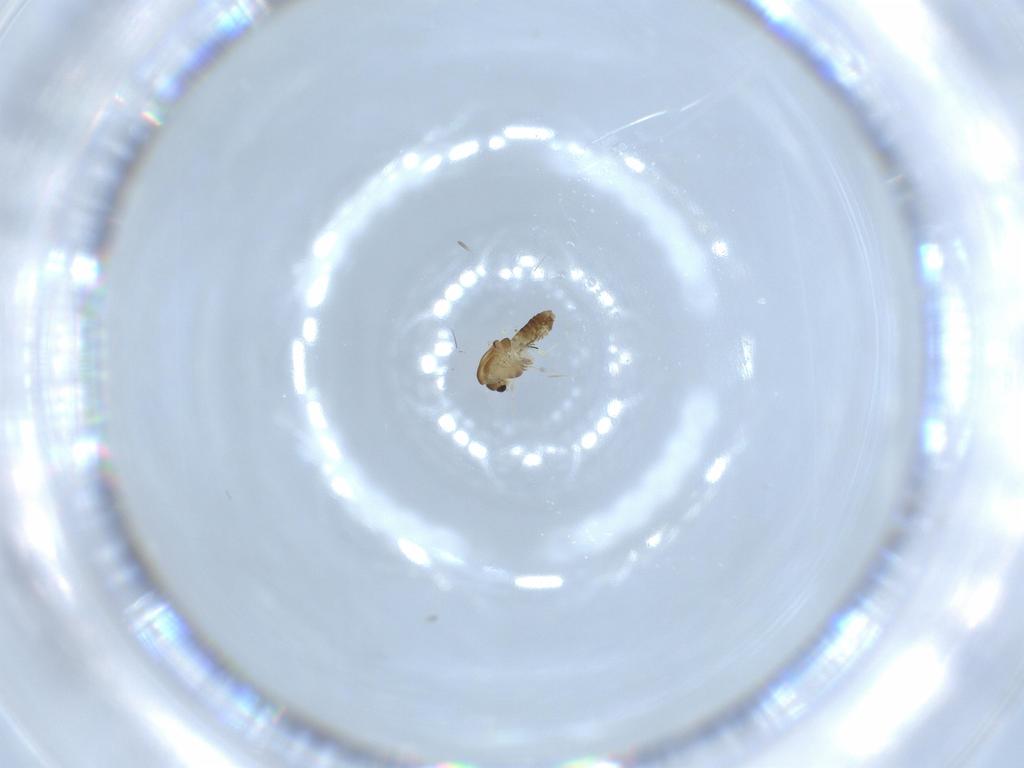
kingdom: Animalia
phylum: Arthropoda
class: Insecta
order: Diptera
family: Chironomidae
